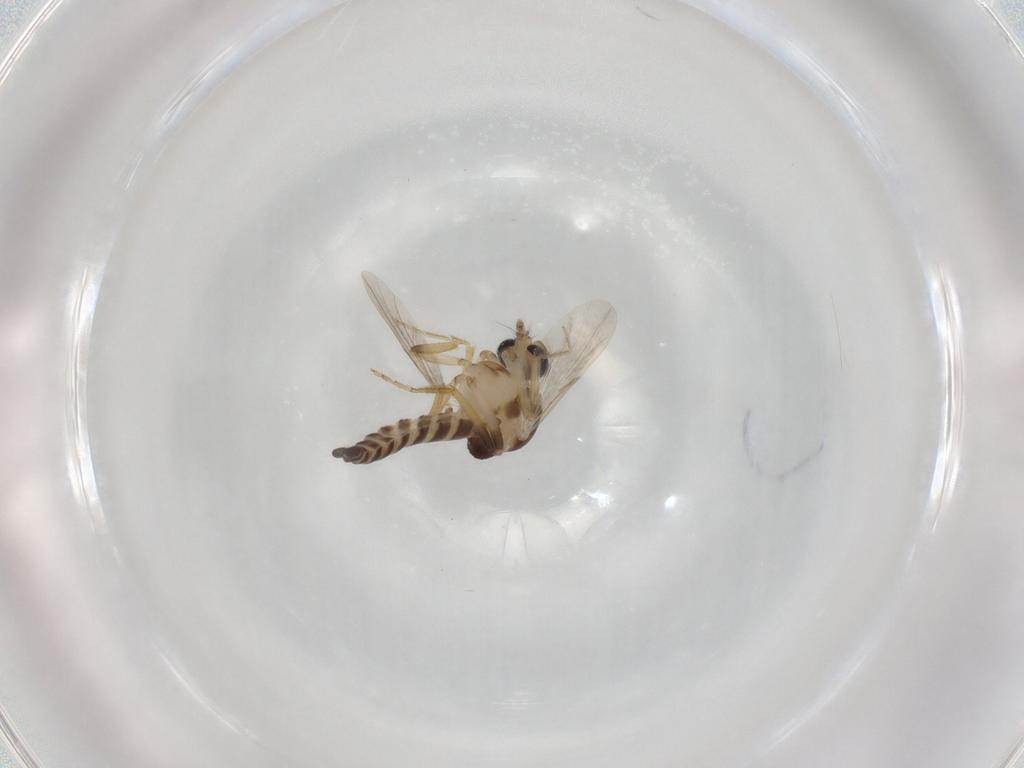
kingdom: Animalia
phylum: Arthropoda
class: Insecta
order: Diptera
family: Ceratopogonidae
